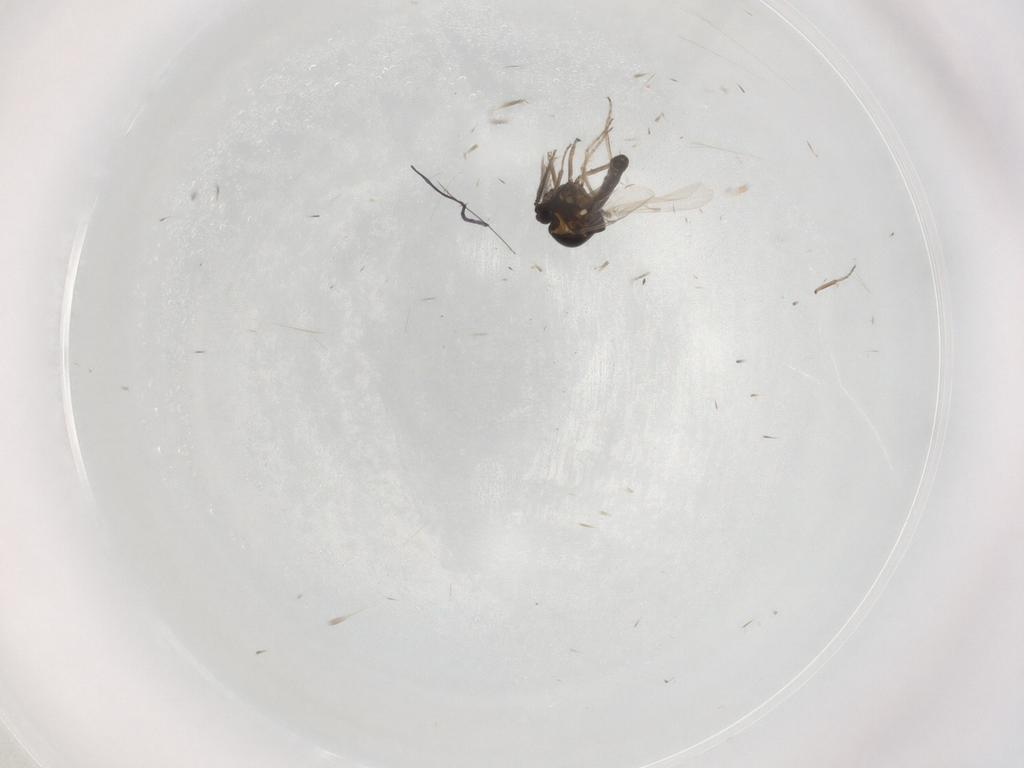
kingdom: Animalia
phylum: Arthropoda
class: Insecta
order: Diptera
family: Ceratopogonidae
